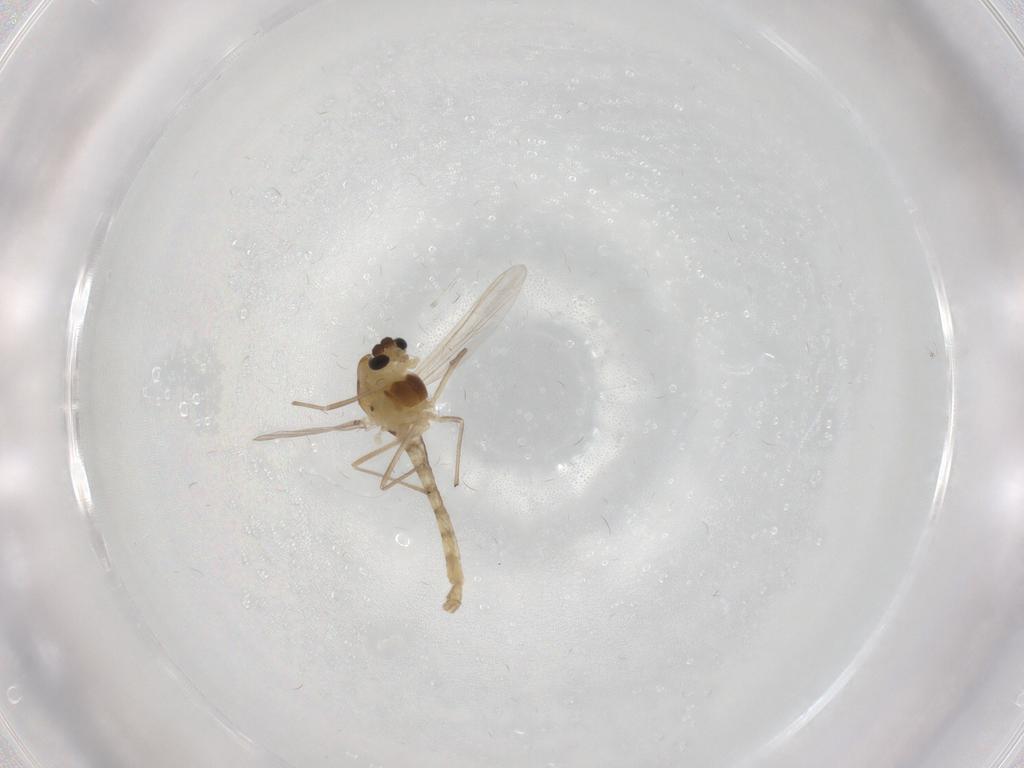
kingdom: Animalia
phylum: Arthropoda
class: Insecta
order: Diptera
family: Chironomidae
